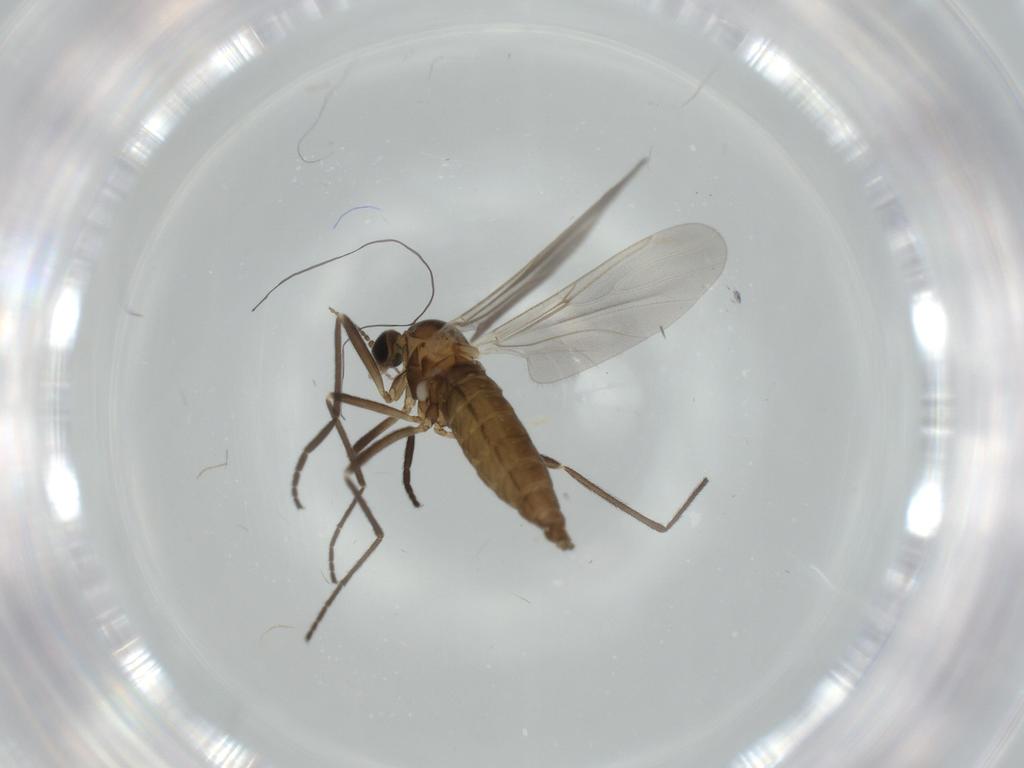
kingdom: Animalia
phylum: Arthropoda
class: Insecta
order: Diptera
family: Cecidomyiidae
